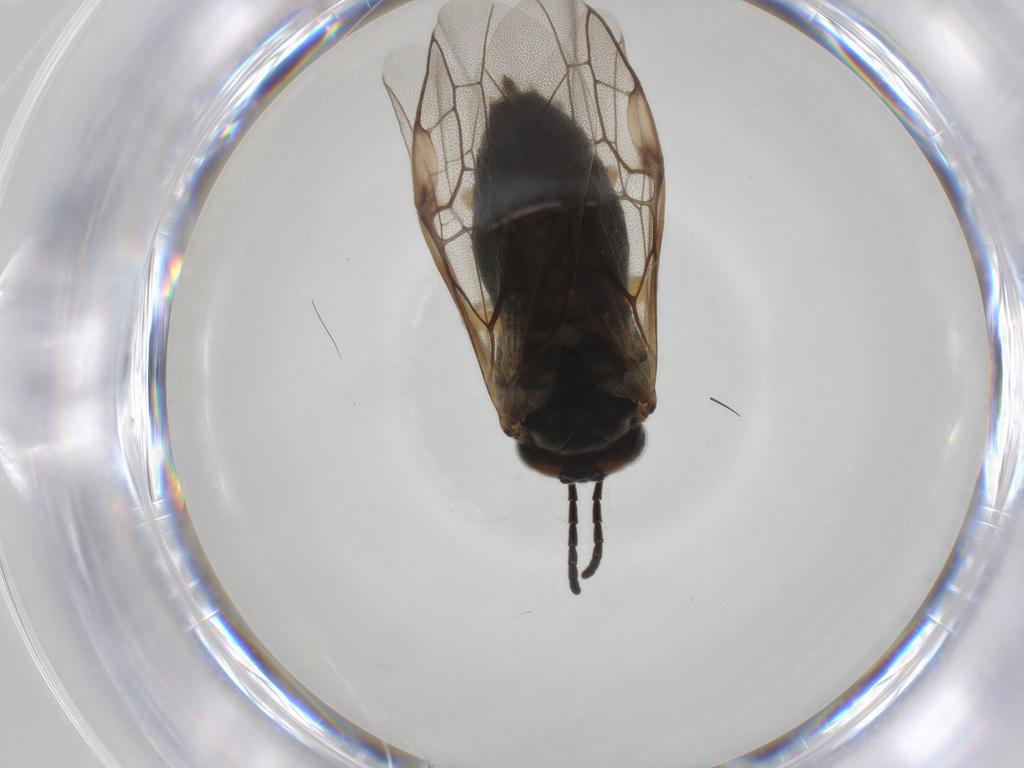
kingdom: Animalia
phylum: Arthropoda
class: Insecta
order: Hymenoptera
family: Tenthredinidae
